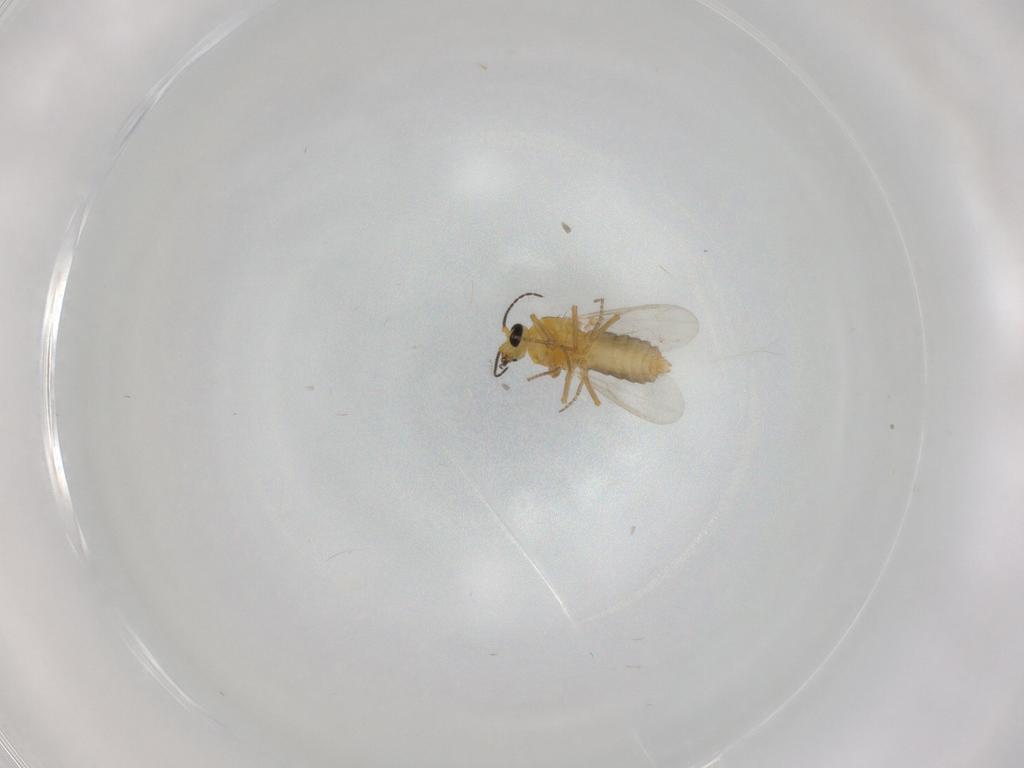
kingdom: Animalia
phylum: Arthropoda
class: Insecta
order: Diptera
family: Ceratopogonidae
